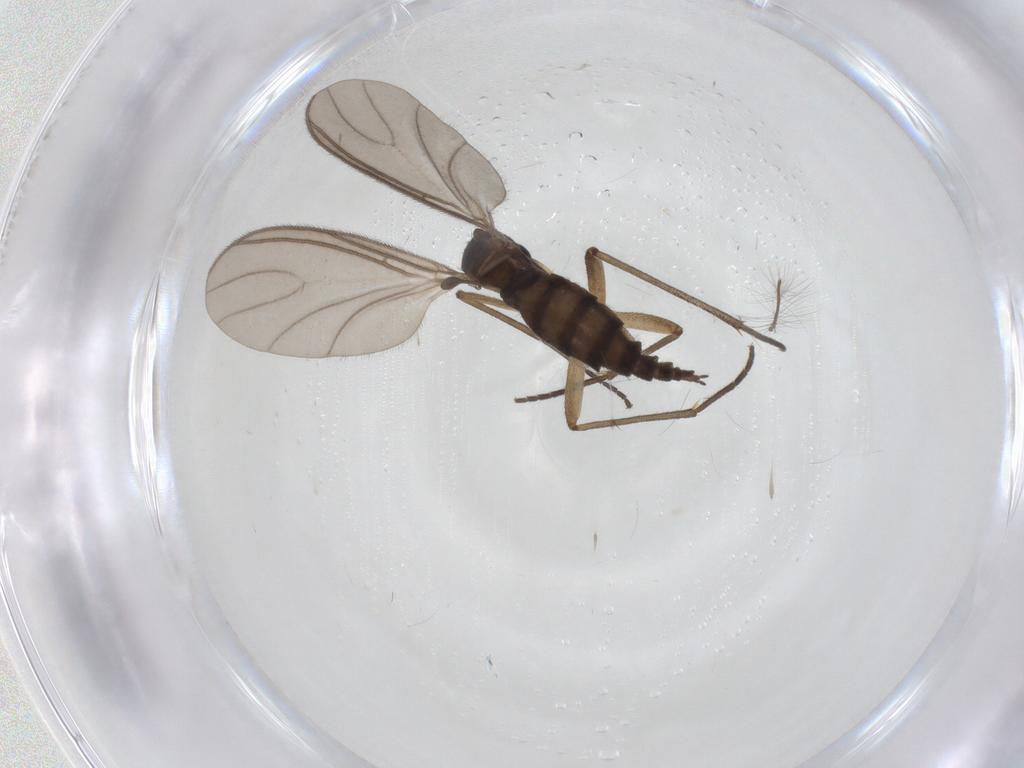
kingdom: Animalia
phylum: Arthropoda
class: Insecta
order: Diptera
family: Sciaridae
